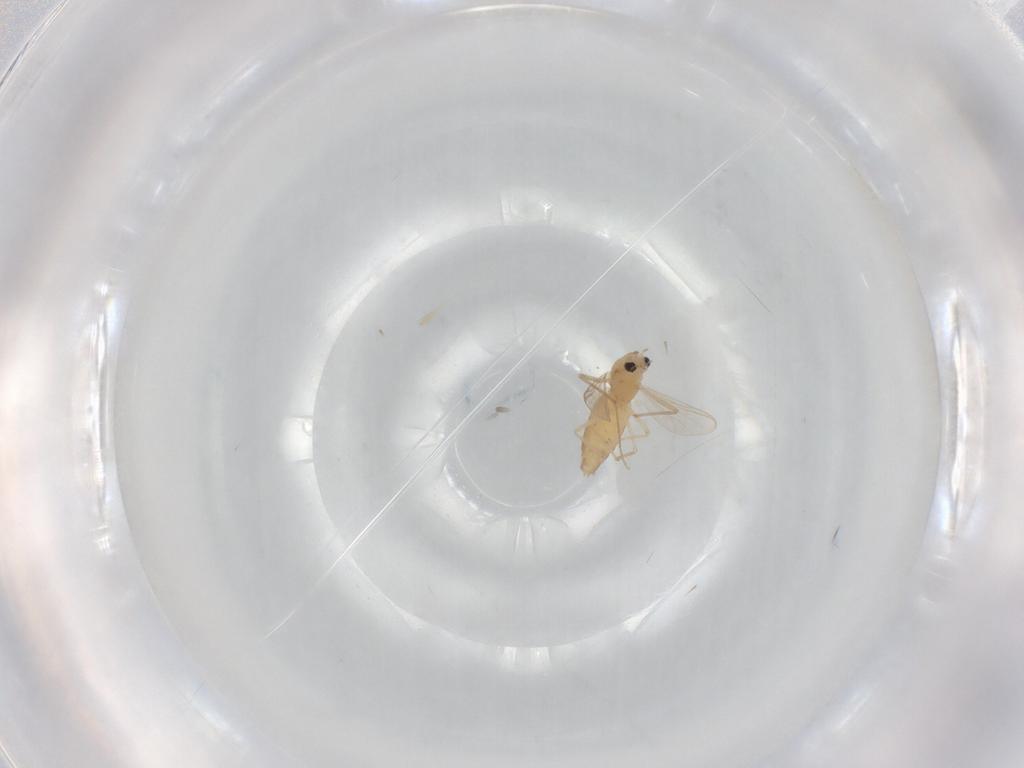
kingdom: Animalia
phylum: Arthropoda
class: Insecta
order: Diptera
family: Chironomidae
